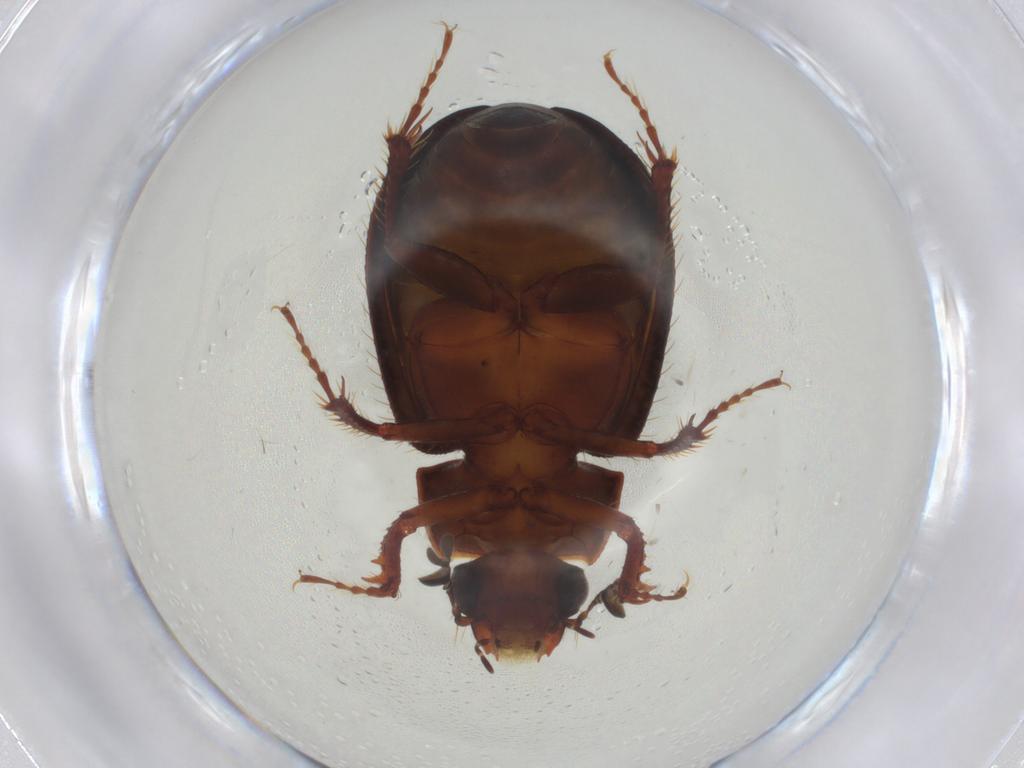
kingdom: Animalia
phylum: Arthropoda
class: Insecta
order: Coleoptera
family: Hybosoridae
